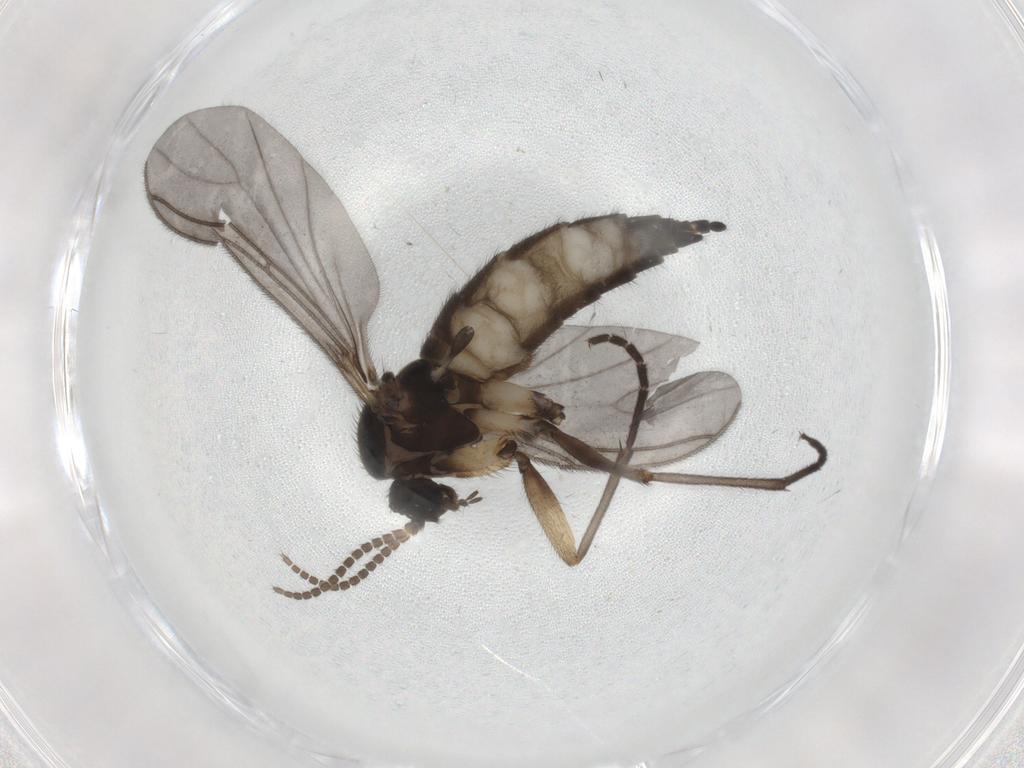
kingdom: Animalia
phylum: Arthropoda
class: Insecta
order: Diptera
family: Sciaridae
